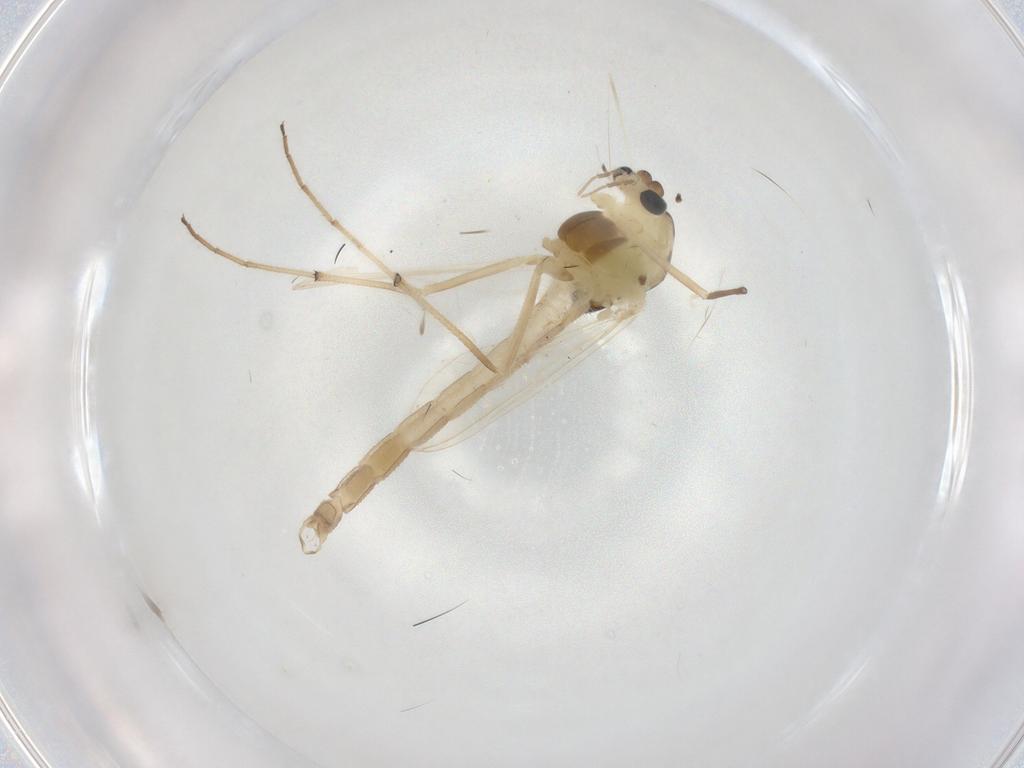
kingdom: Animalia
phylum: Arthropoda
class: Insecta
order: Diptera
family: Chironomidae
